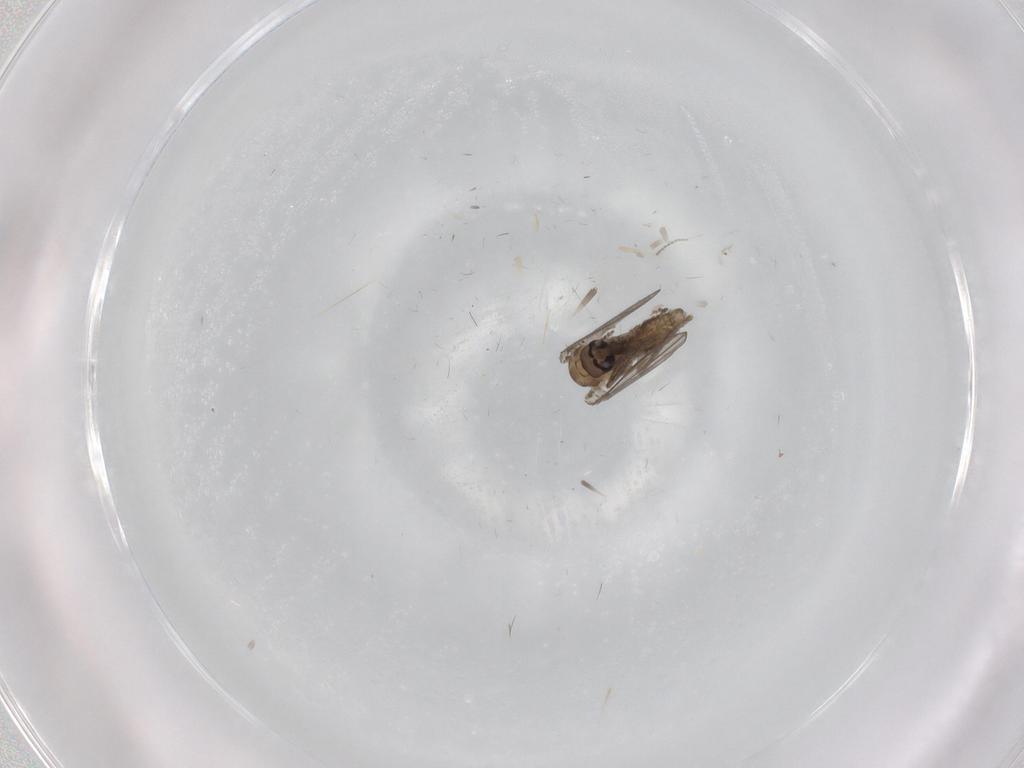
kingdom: Animalia
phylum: Arthropoda
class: Insecta
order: Diptera
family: Psychodidae
